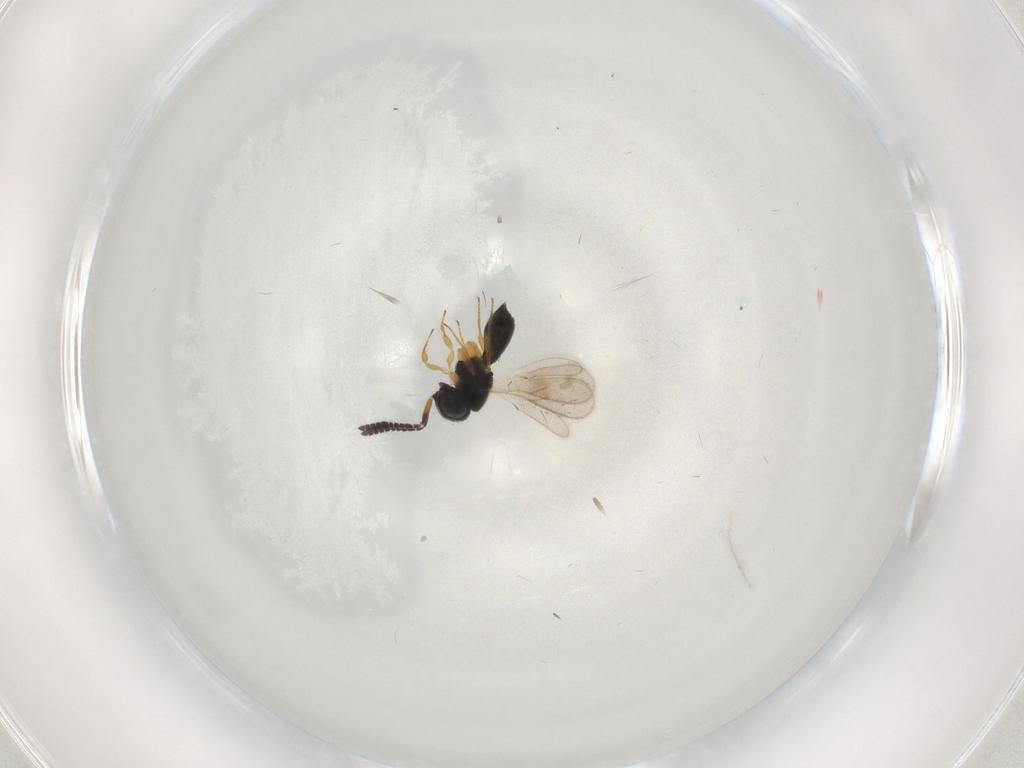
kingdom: Animalia
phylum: Arthropoda
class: Insecta
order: Hymenoptera
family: Scelionidae
